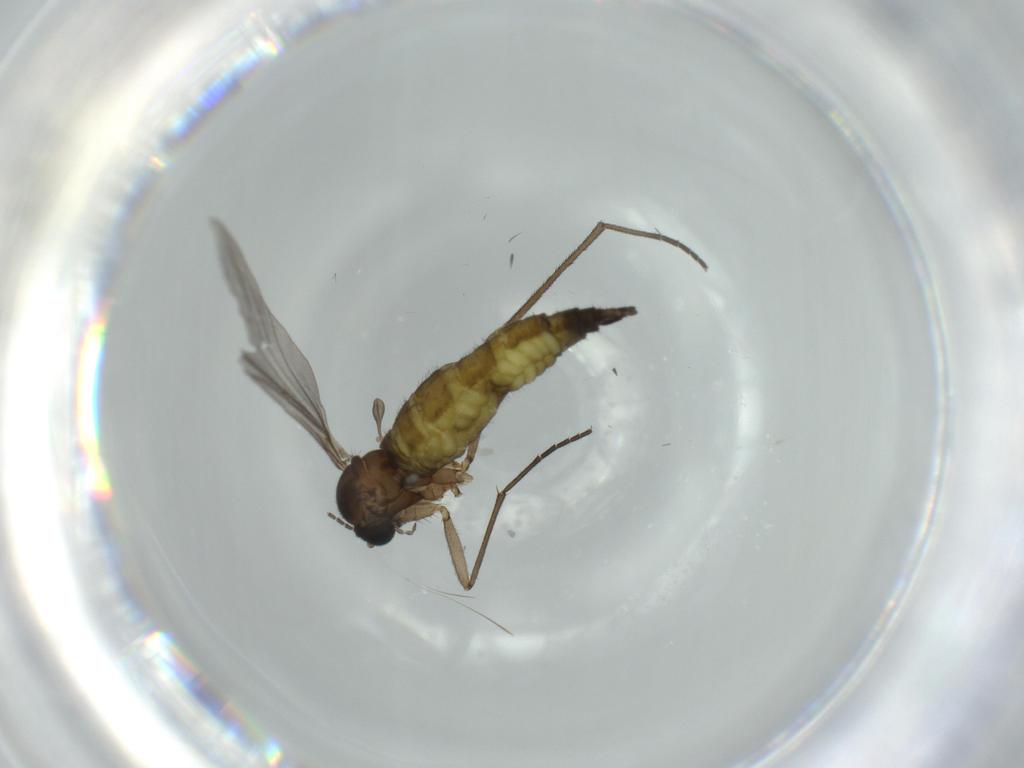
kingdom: Animalia
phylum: Arthropoda
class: Insecta
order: Diptera
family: Sciaridae
